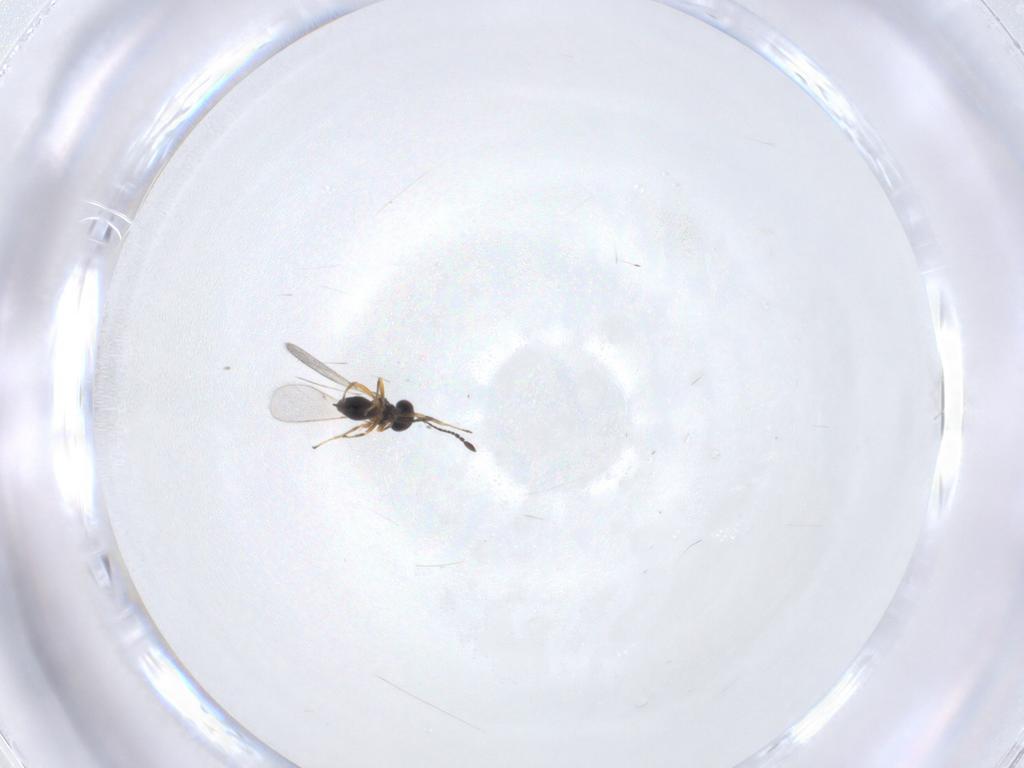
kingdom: Animalia
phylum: Arthropoda
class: Insecta
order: Hymenoptera
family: Mymaridae
